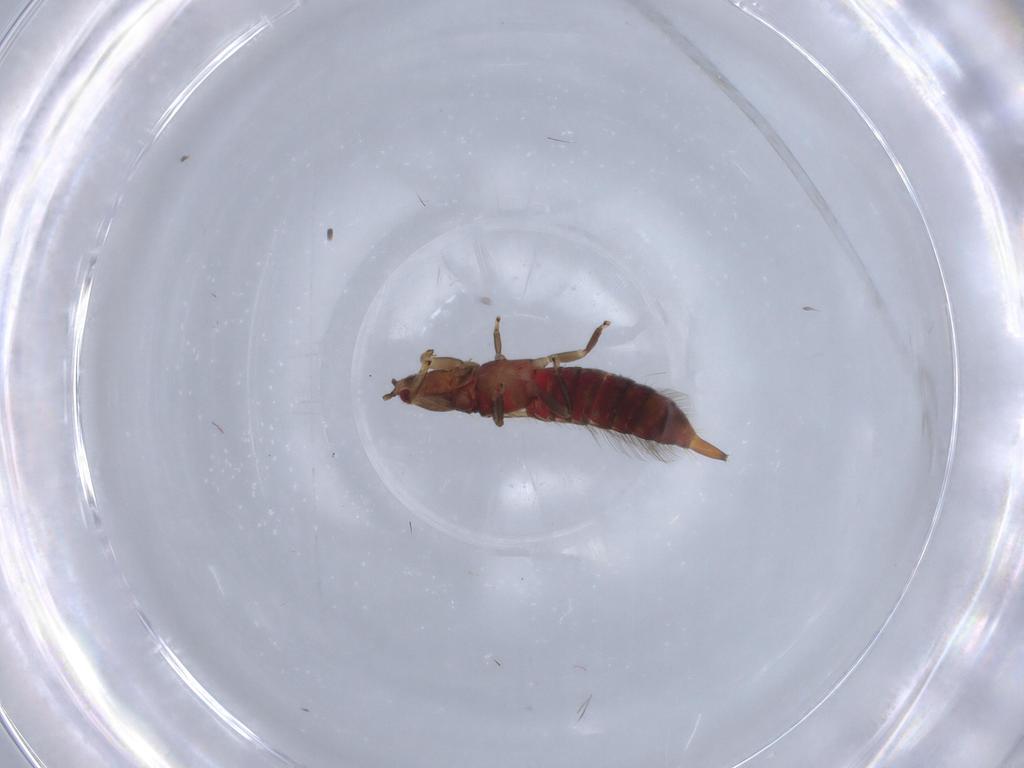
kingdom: Animalia
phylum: Arthropoda
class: Insecta
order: Thysanoptera
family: Phlaeothripidae
